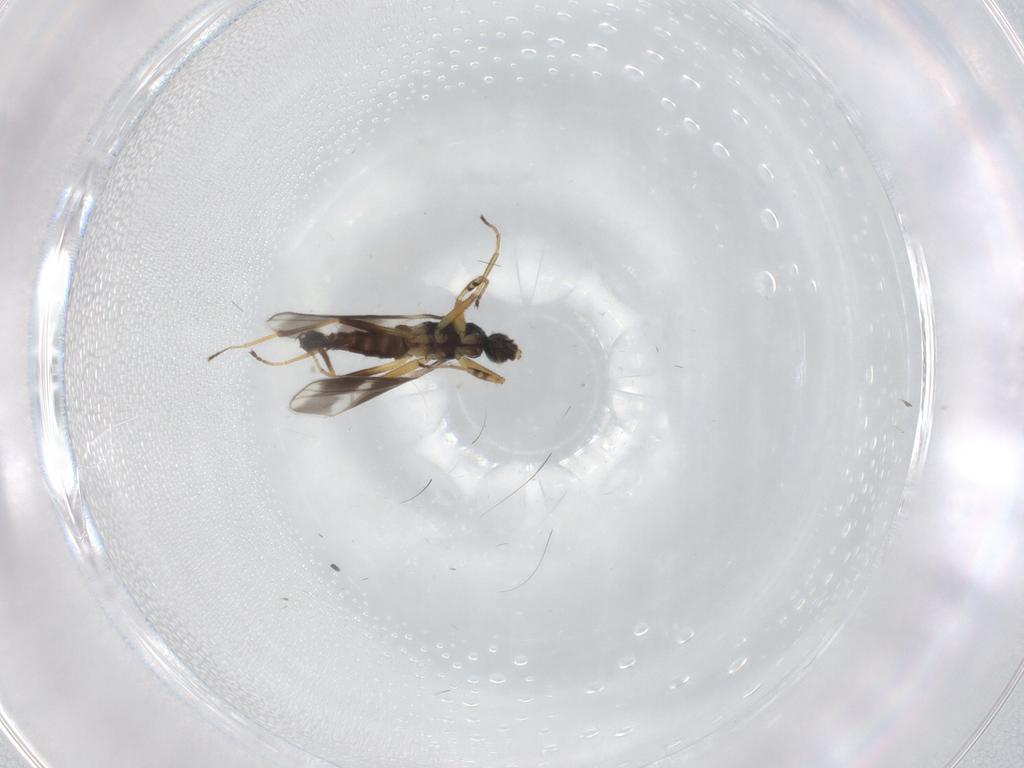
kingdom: Animalia
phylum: Arthropoda
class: Insecta
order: Diptera
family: Hybotidae
